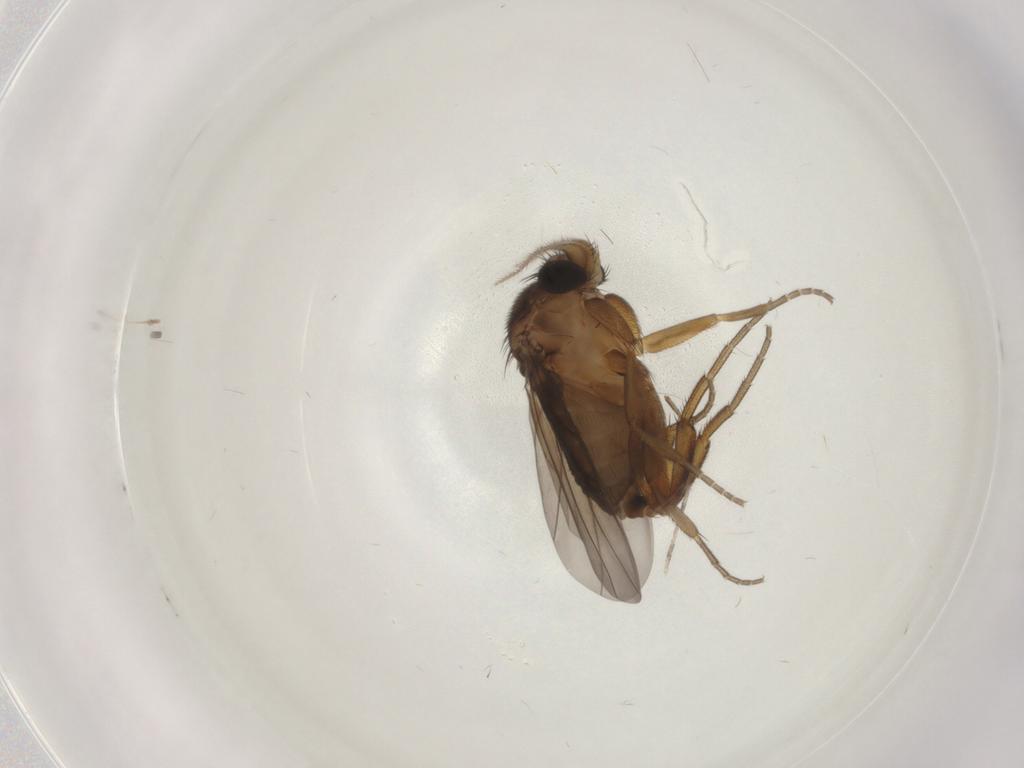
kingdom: Animalia
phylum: Arthropoda
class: Insecta
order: Diptera
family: Phoridae
